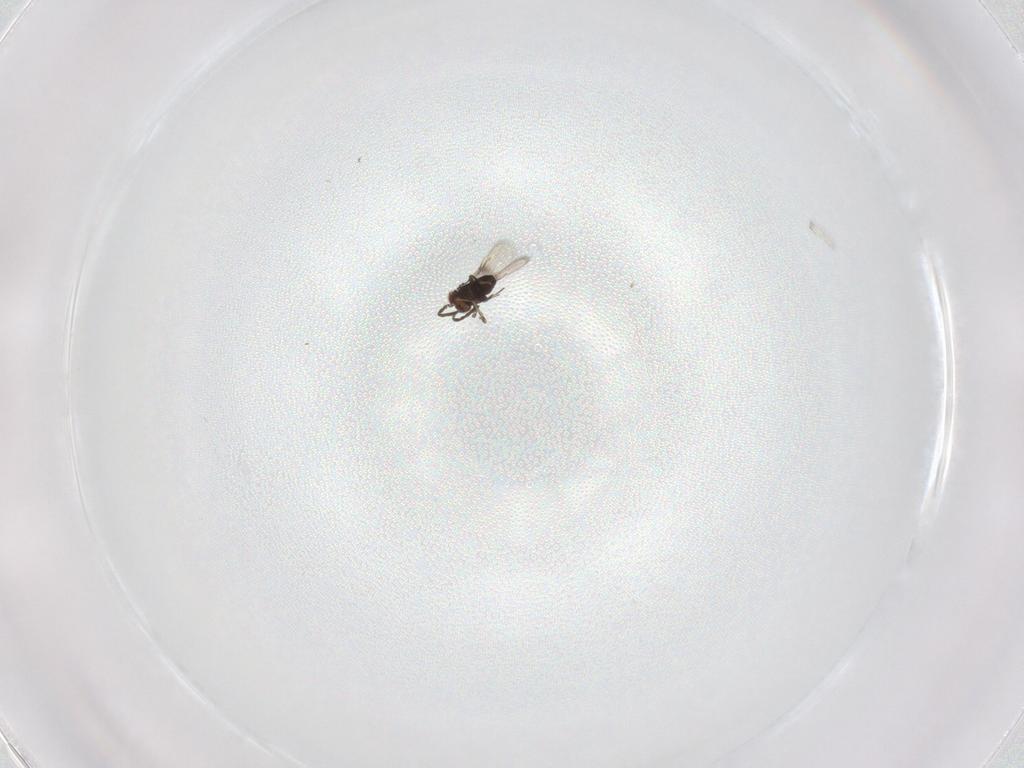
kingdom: Animalia
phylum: Arthropoda
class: Insecta
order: Hymenoptera
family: Azotidae
